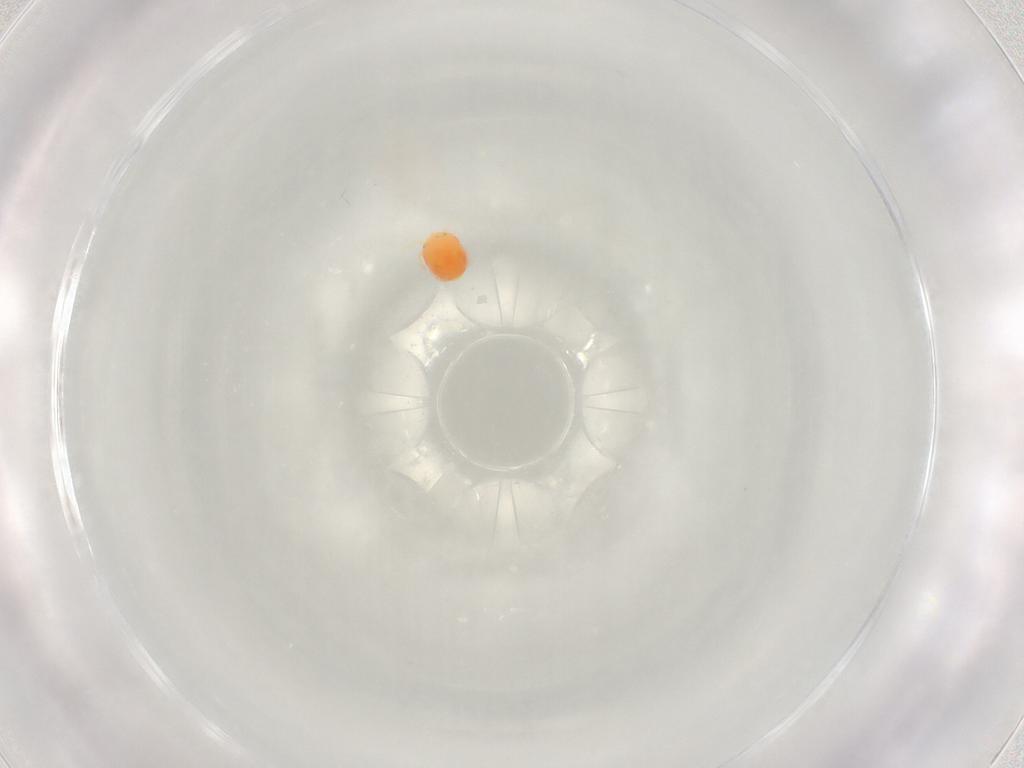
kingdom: Animalia
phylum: Arthropoda
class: Arachnida
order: Trombidiformes
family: Hydryphantidae
